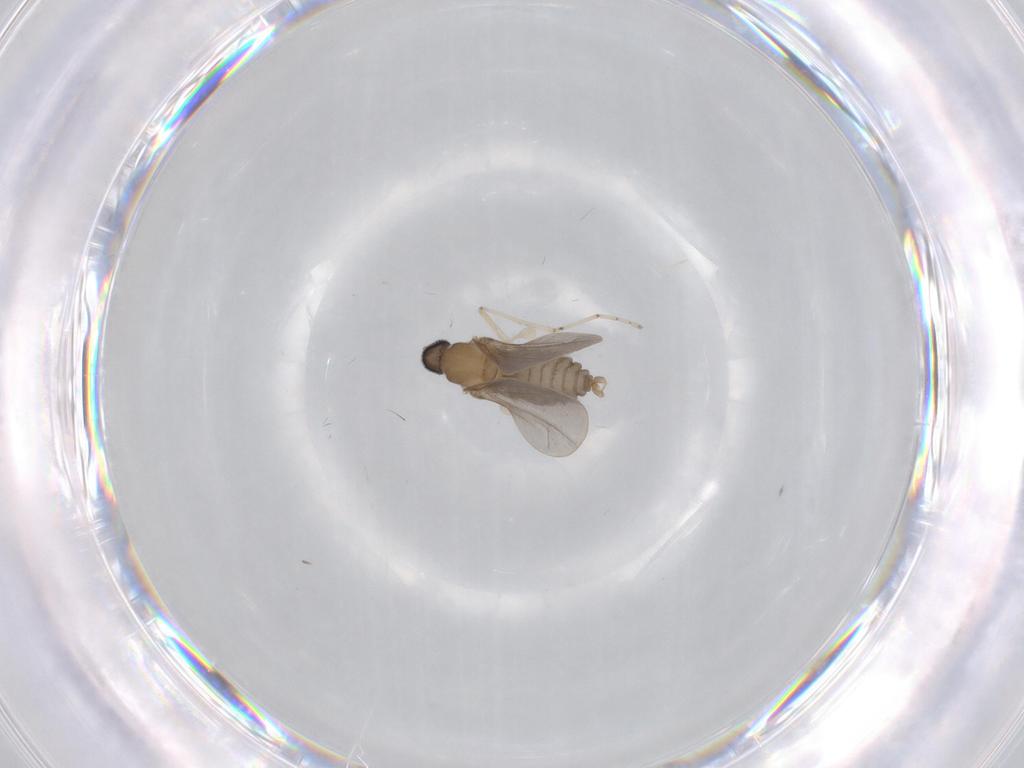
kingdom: Animalia
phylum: Arthropoda
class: Insecta
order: Diptera
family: Cecidomyiidae
